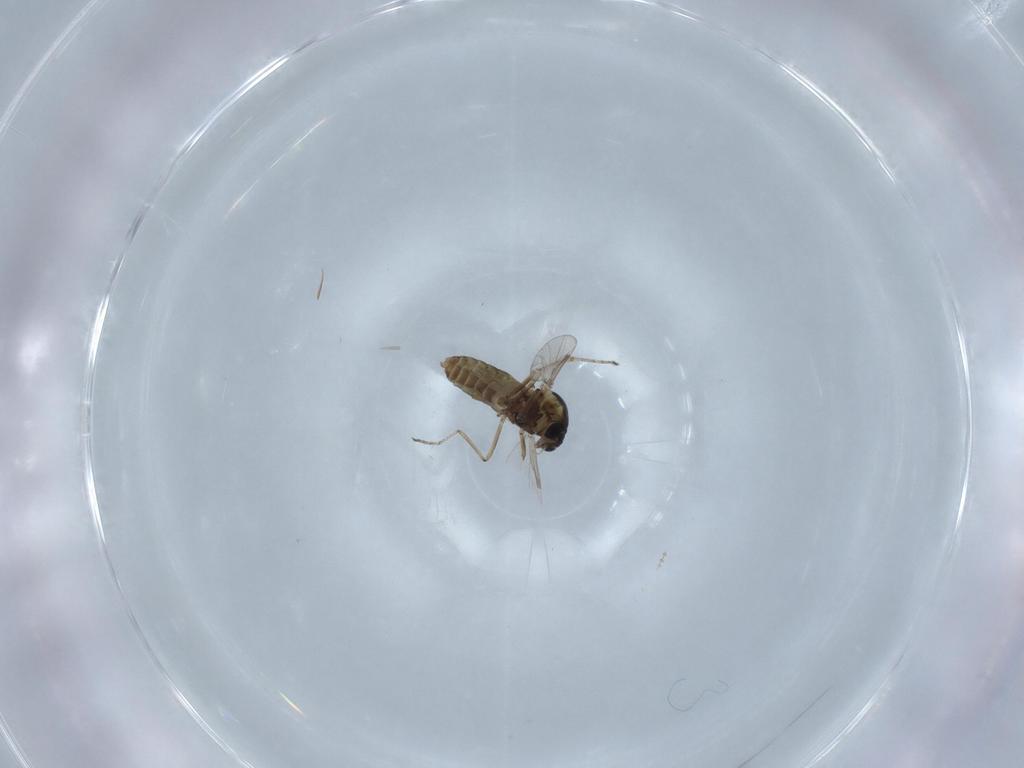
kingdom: Animalia
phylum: Arthropoda
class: Insecta
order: Diptera
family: Ceratopogonidae
